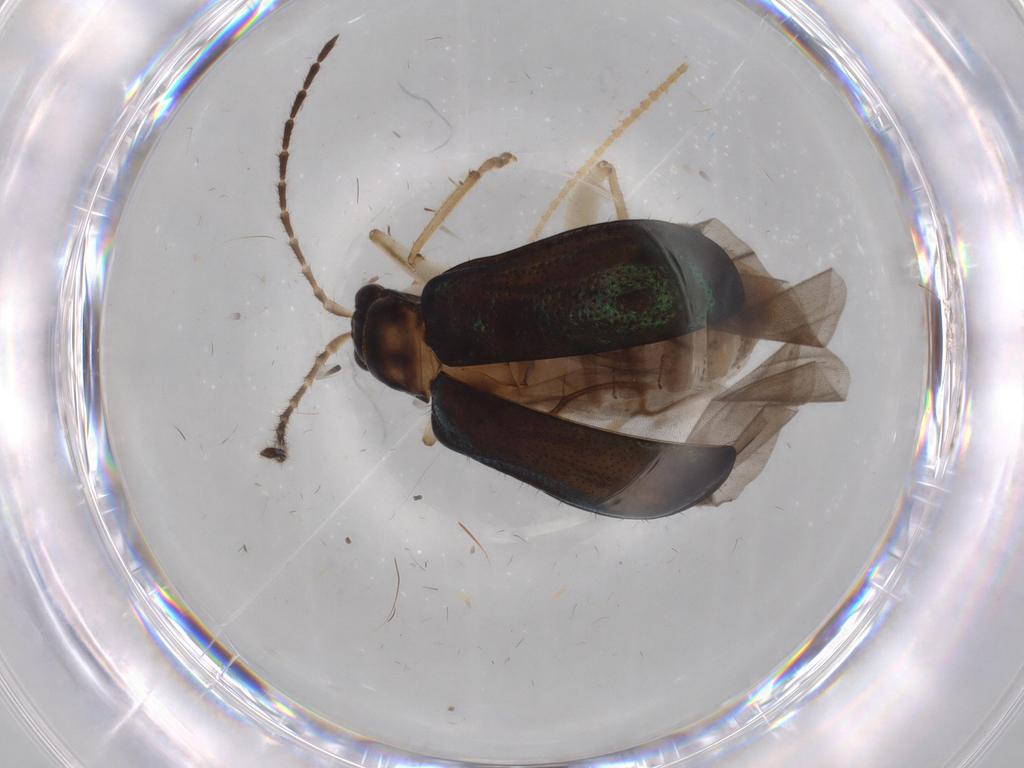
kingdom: Animalia
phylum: Arthropoda
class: Insecta
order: Coleoptera
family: Chrysomelidae
